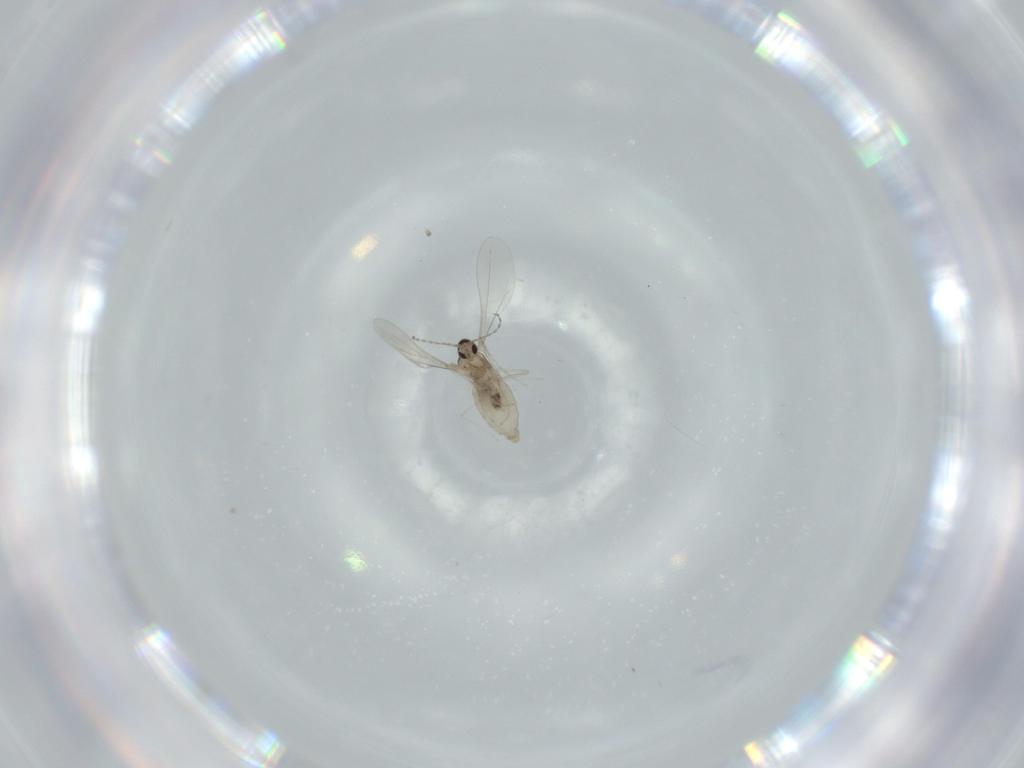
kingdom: Animalia
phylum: Arthropoda
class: Insecta
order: Diptera
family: Cecidomyiidae
